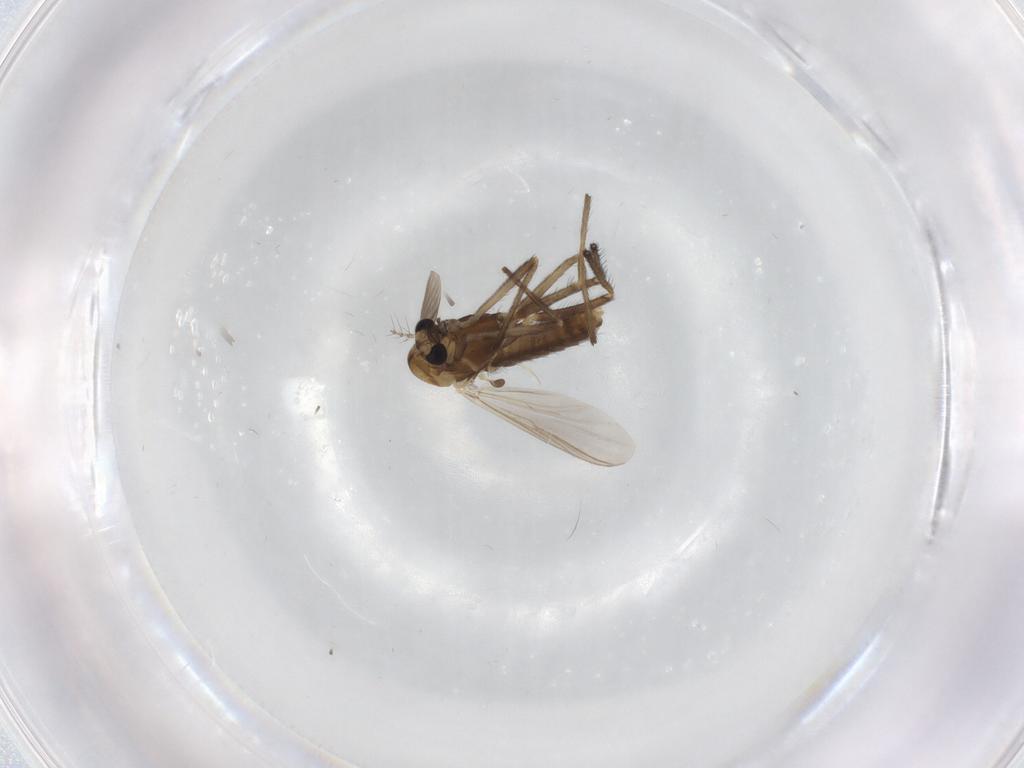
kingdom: Animalia
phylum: Arthropoda
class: Insecta
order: Diptera
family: Chironomidae
